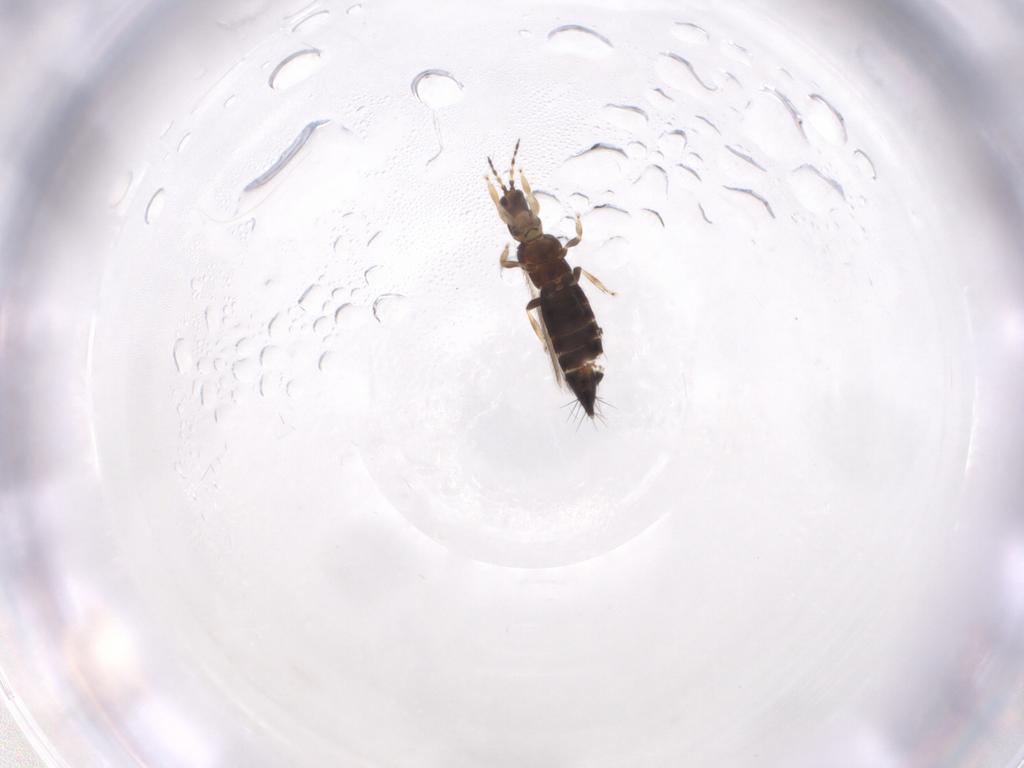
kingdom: Animalia
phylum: Arthropoda
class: Insecta
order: Thysanoptera
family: Thripidae
